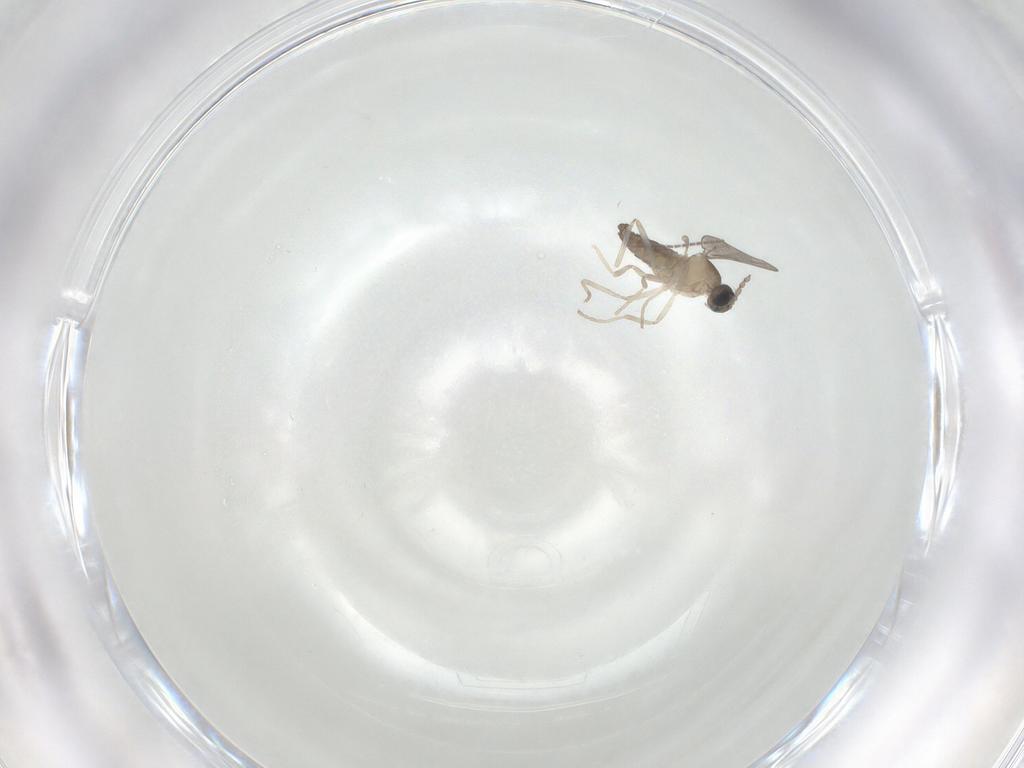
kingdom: Animalia
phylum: Arthropoda
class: Insecta
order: Diptera
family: Cecidomyiidae
